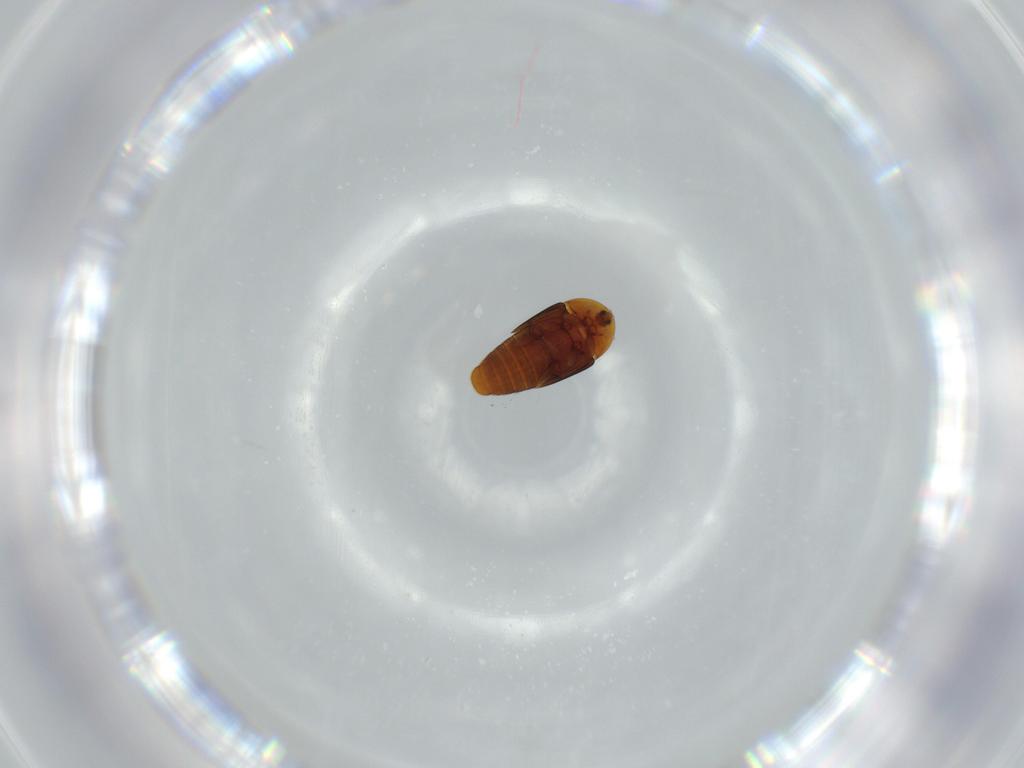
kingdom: Animalia
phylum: Arthropoda
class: Insecta
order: Coleoptera
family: Corylophidae
